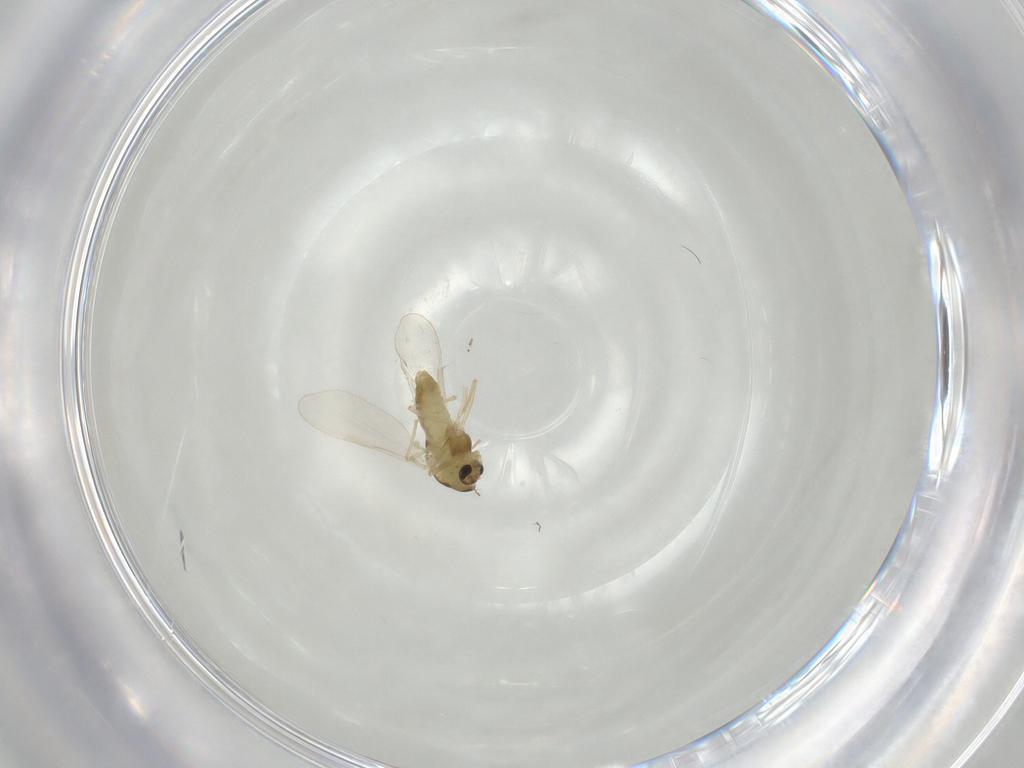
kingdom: Animalia
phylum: Arthropoda
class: Insecta
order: Diptera
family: Chironomidae
